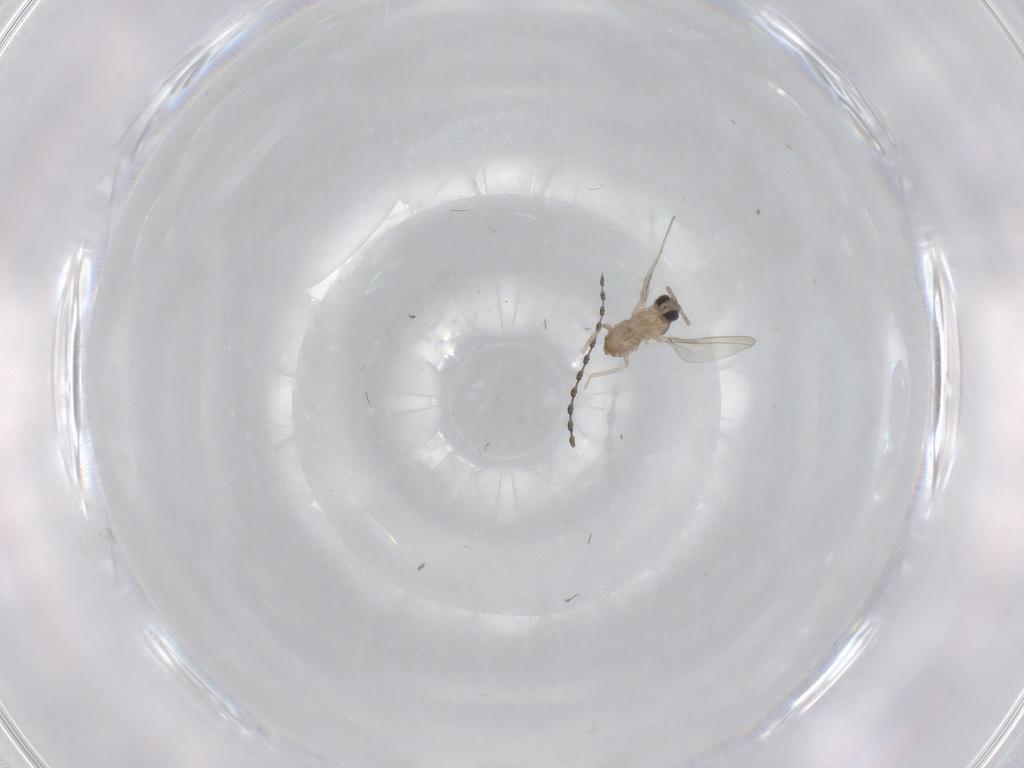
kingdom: Animalia
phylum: Arthropoda
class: Insecta
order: Diptera
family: Cecidomyiidae
